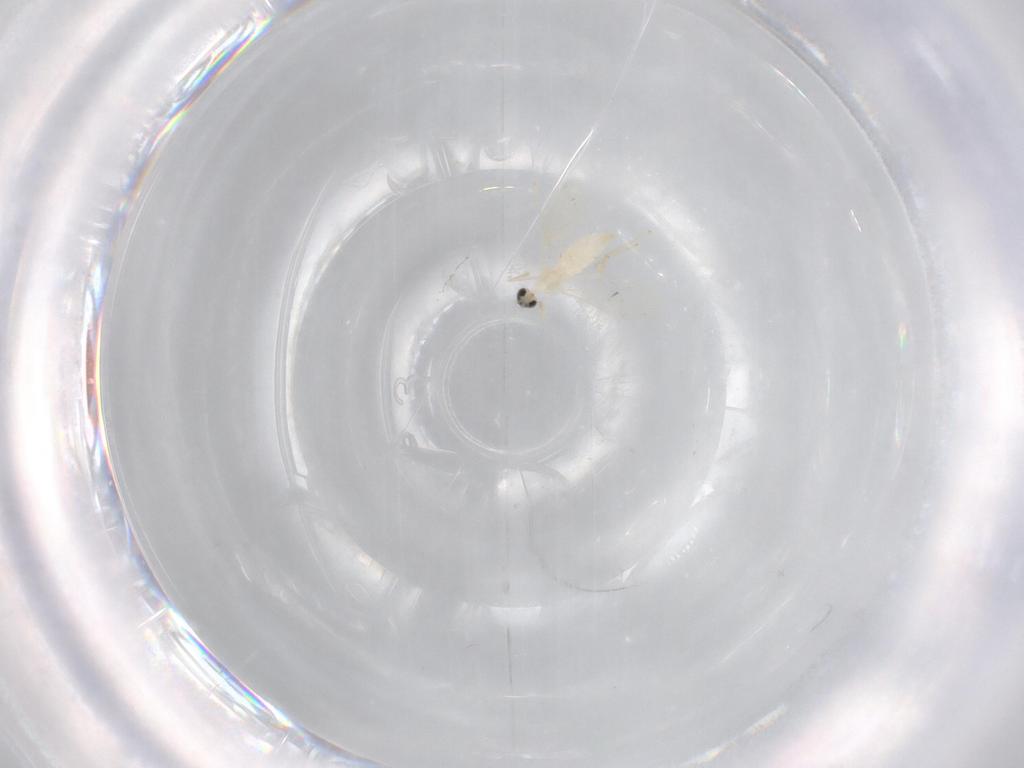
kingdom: Animalia
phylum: Arthropoda
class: Insecta
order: Diptera
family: Cecidomyiidae
